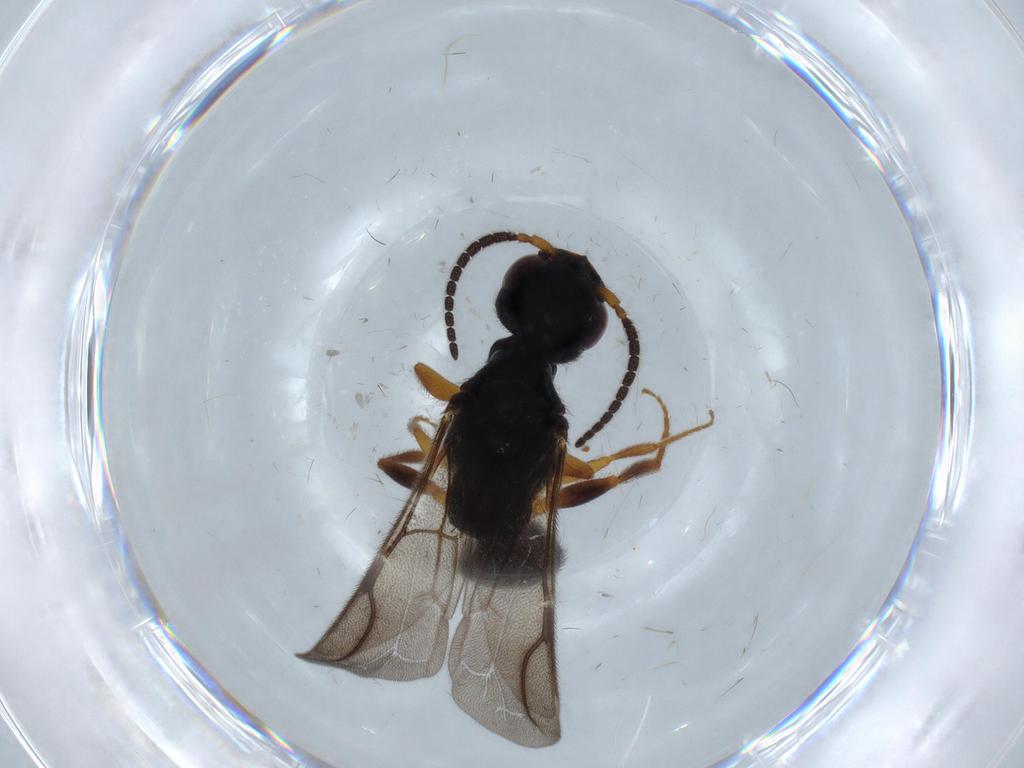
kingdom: Animalia
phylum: Arthropoda
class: Insecta
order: Hymenoptera
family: Bethylidae
